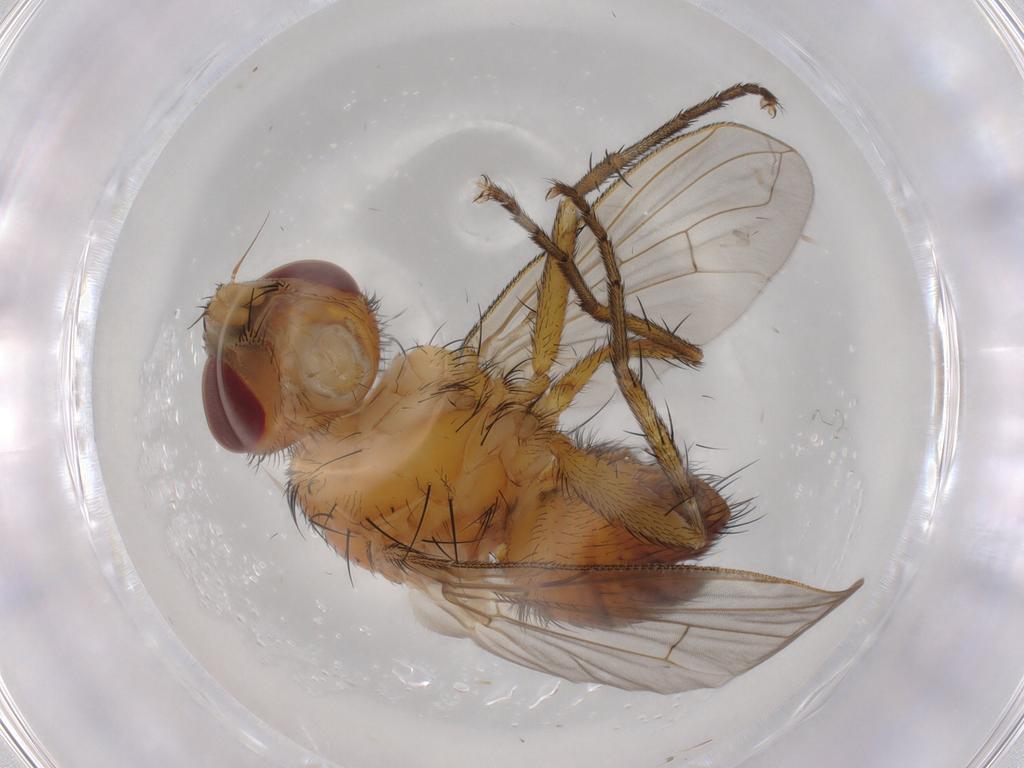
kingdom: Animalia
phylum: Arthropoda
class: Insecta
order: Diptera
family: Tachinidae
